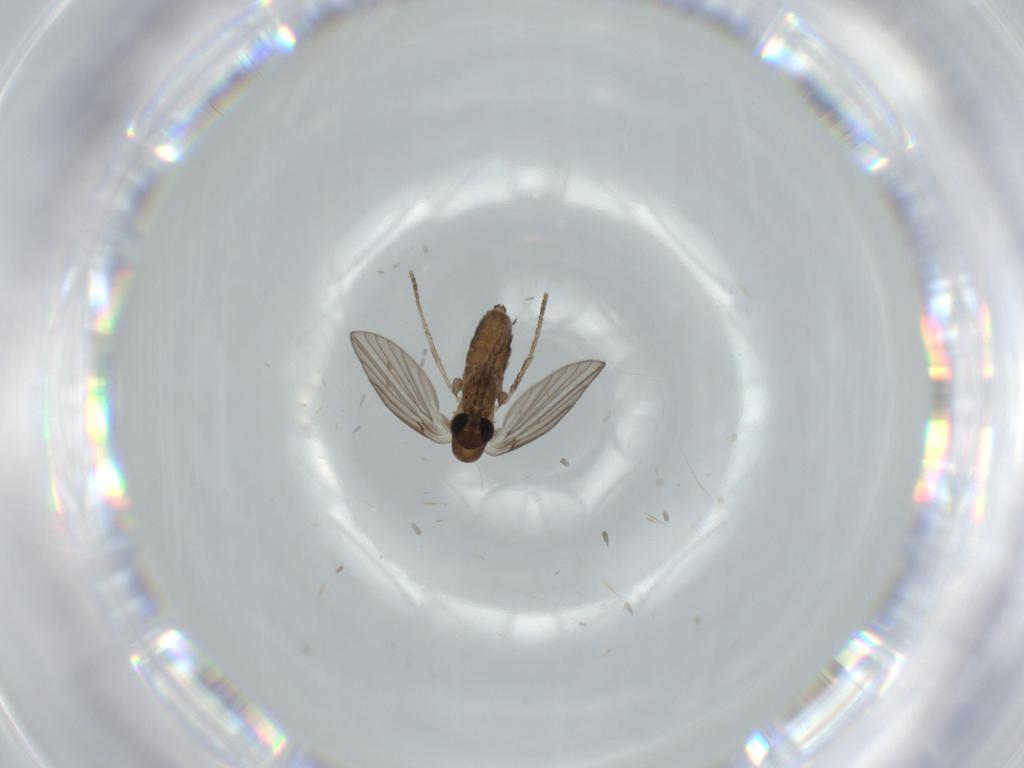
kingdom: Animalia
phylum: Arthropoda
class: Insecta
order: Diptera
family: Psychodidae
